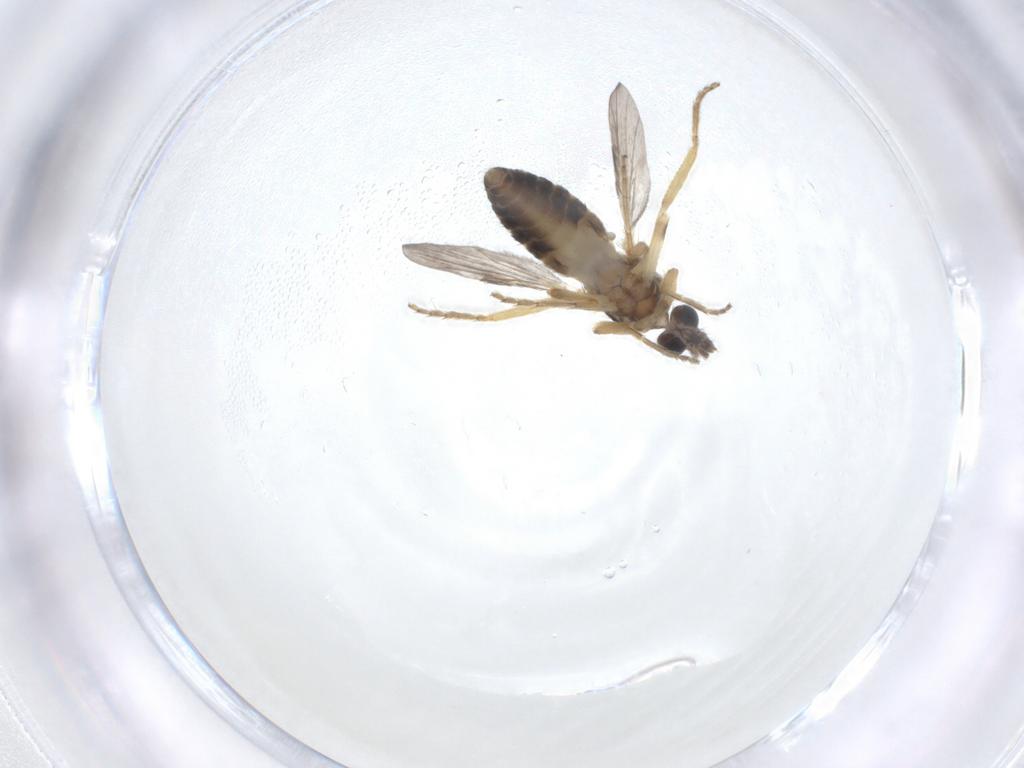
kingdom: Animalia
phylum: Arthropoda
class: Insecta
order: Diptera
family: Ceratopogonidae
